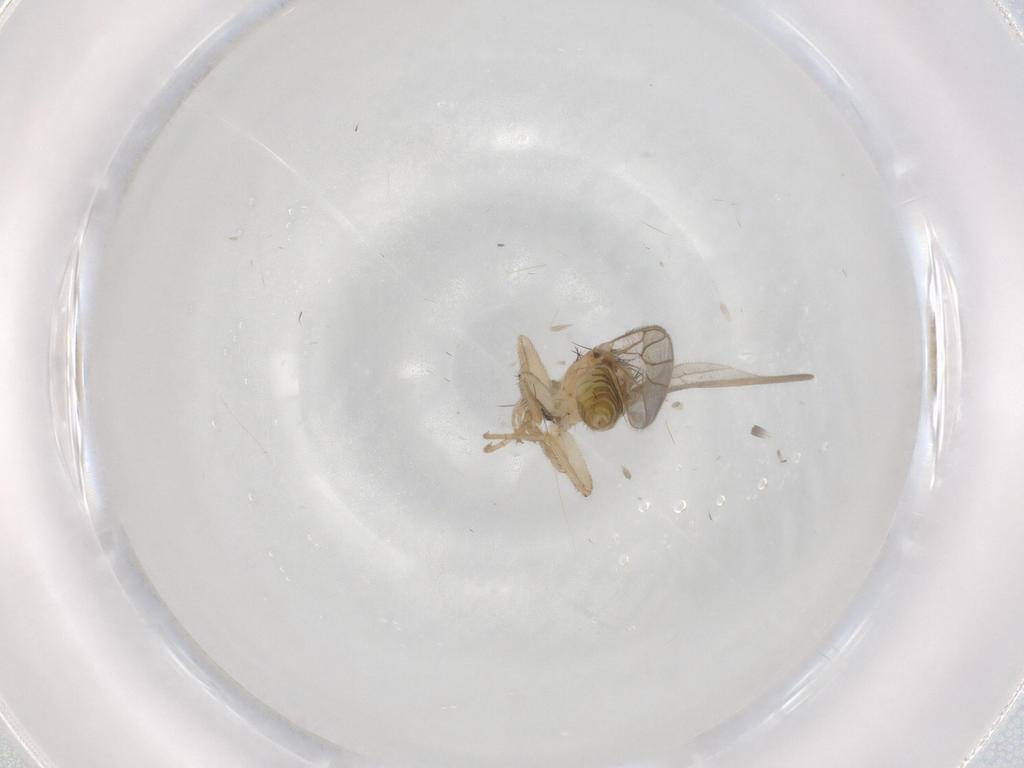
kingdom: Animalia
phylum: Arthropoda
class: Insecta
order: Diptera
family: Hybotidae
